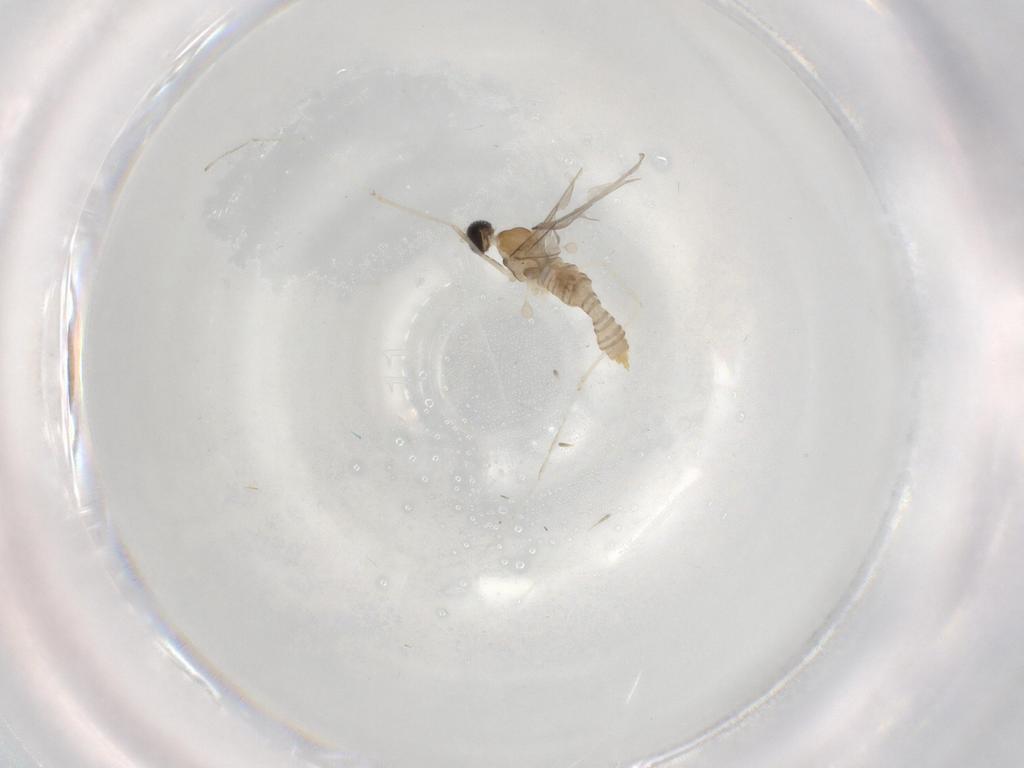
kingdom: Animalia
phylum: Arthropoda
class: Insecta
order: Diptera
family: Cecidomyiidae
